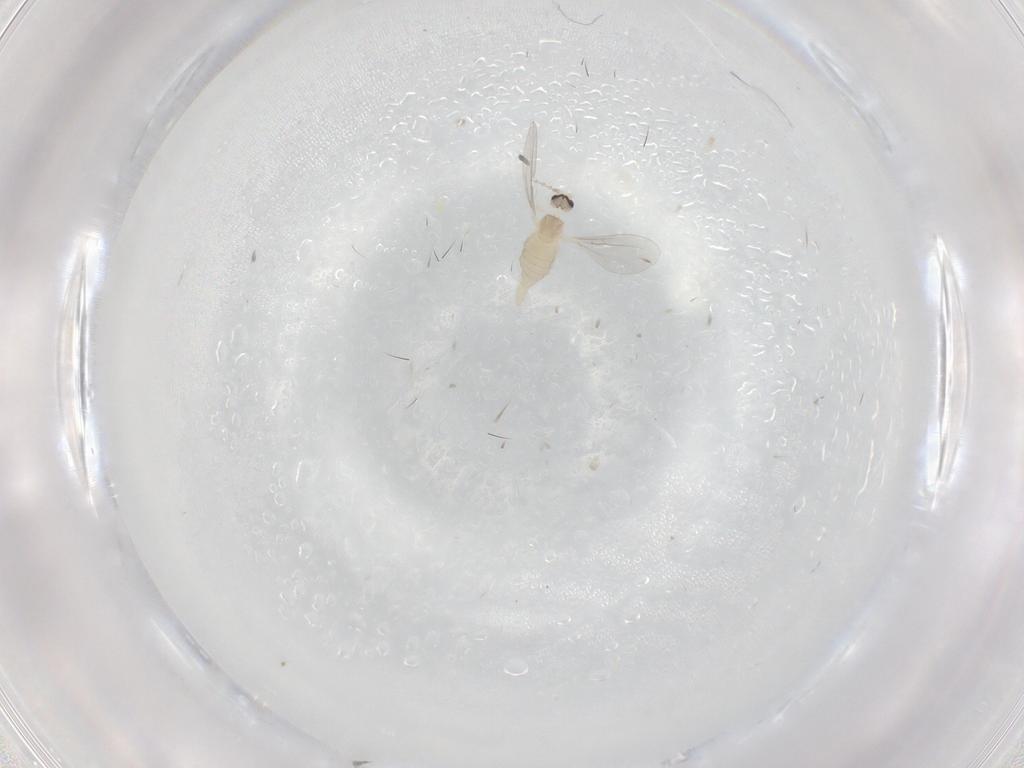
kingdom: Animalia
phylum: Arthropoda
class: Insecta
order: Diptera
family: Cecidomyiidae
